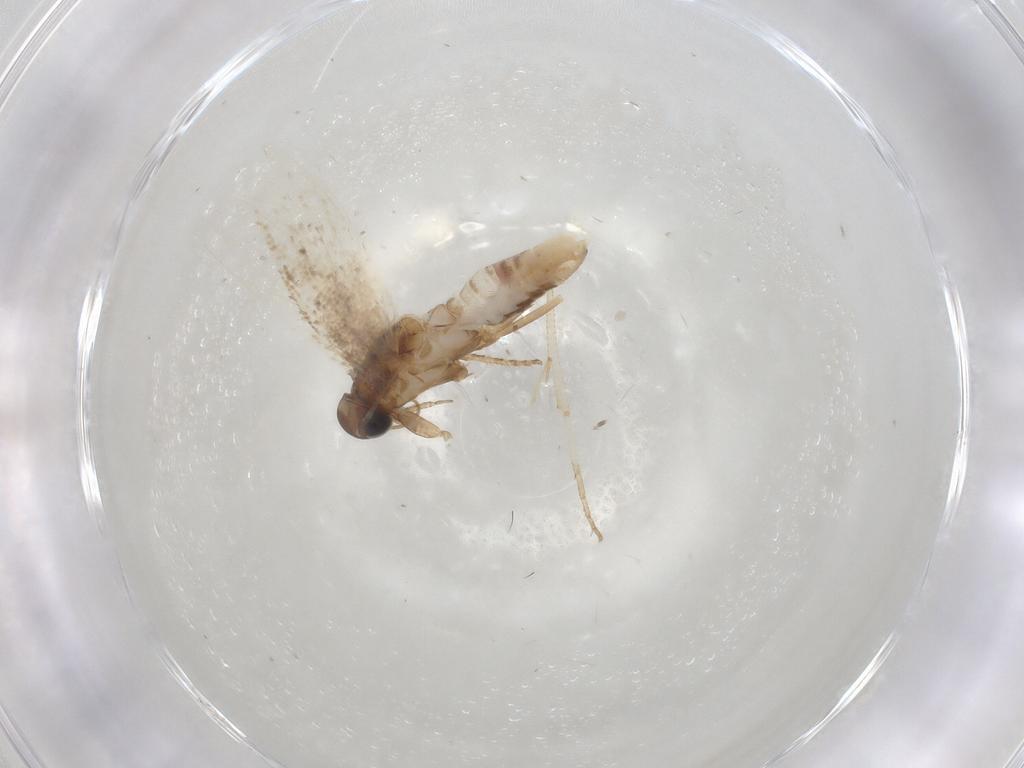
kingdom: Animalia
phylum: Arthropoda
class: Insecta
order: Lepidoptera
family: Gelechiidae
